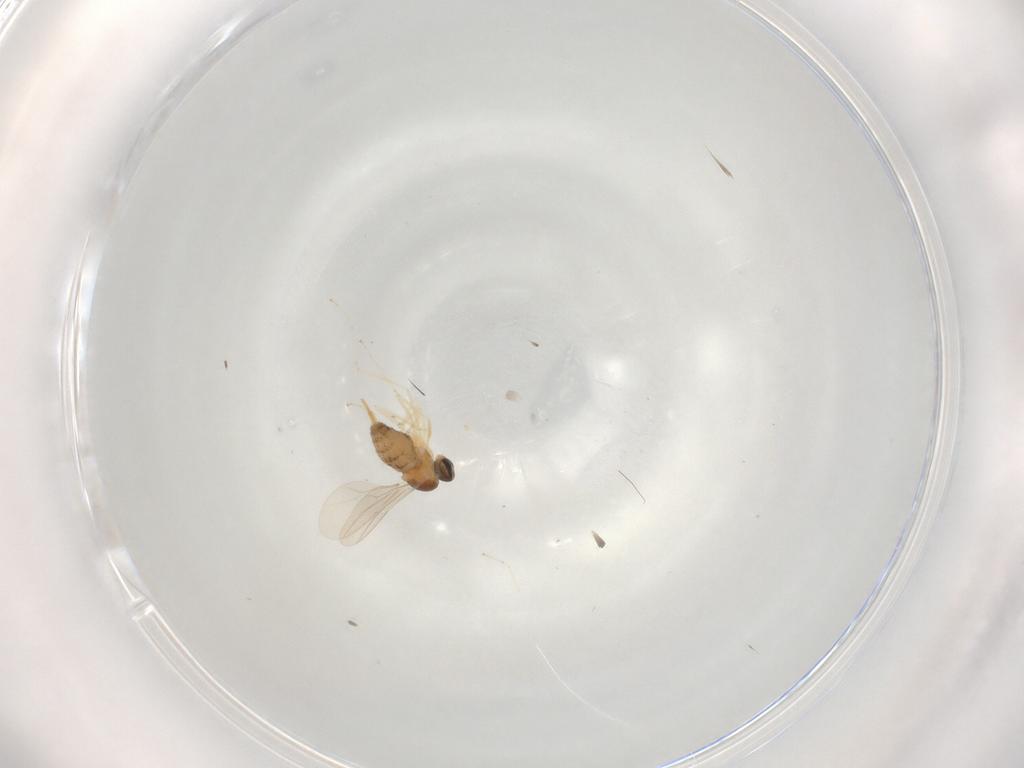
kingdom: Animalia
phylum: Arthropoda
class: Insecta
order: Diptera
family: Cecidomyiidae
